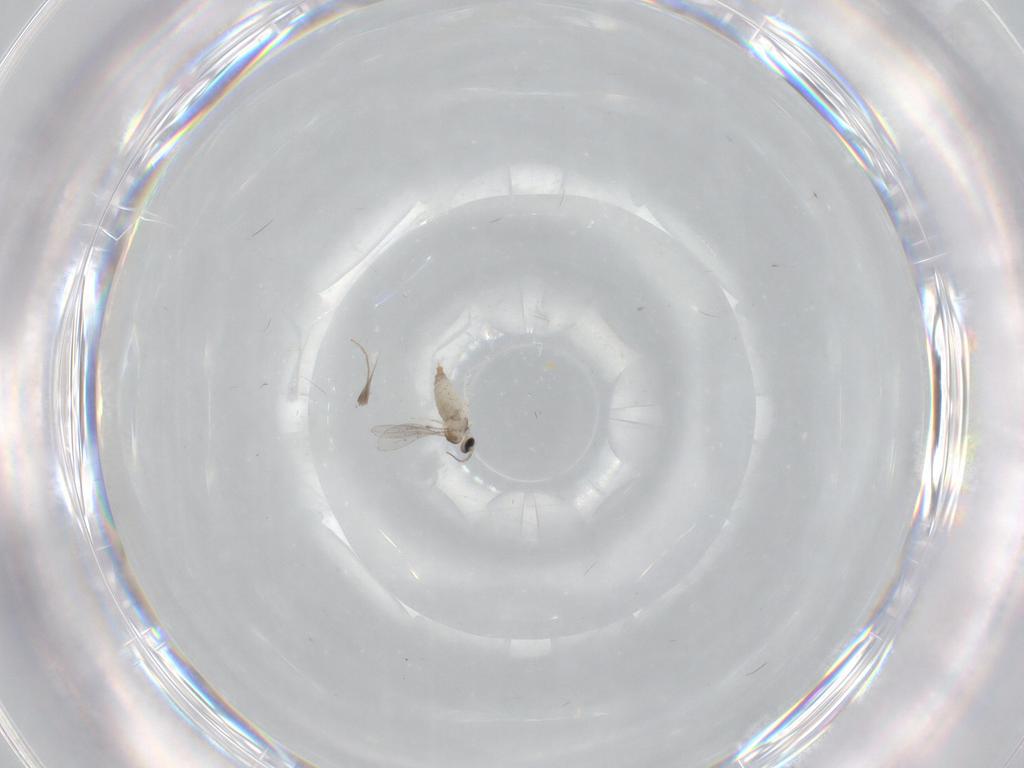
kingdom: Animalia
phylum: Arthropoda
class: Insecta
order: Diptera
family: Chironomidae
